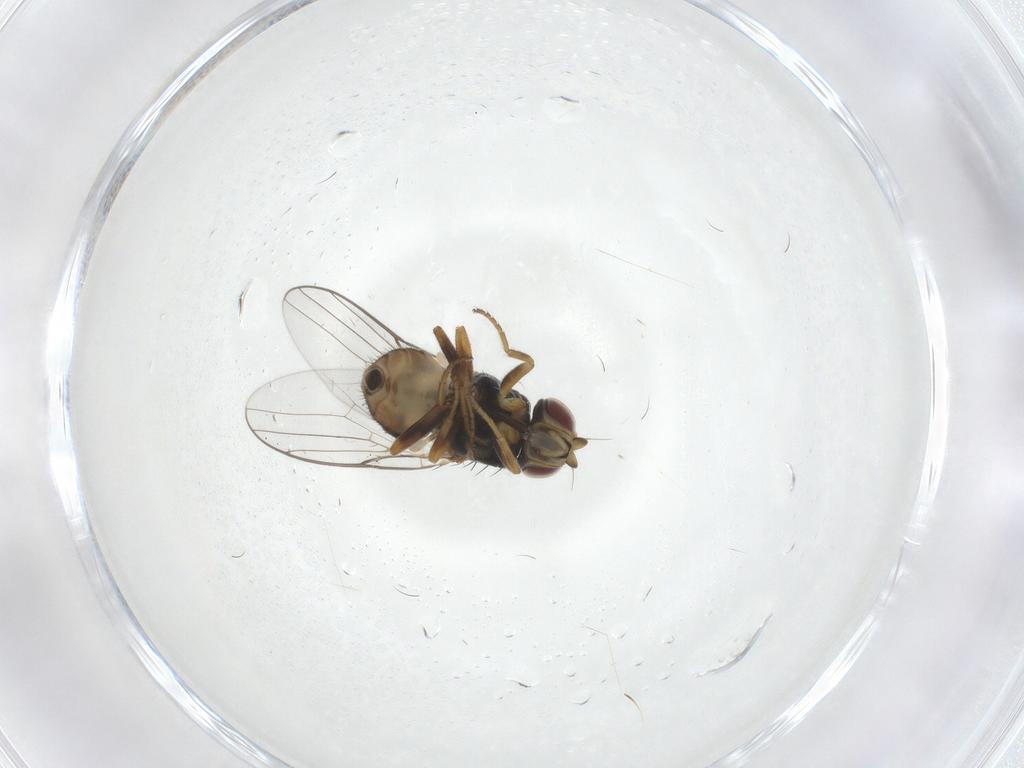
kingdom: Animalia
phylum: Arthropoda
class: Insecta
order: Diptera
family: Chloropidae
